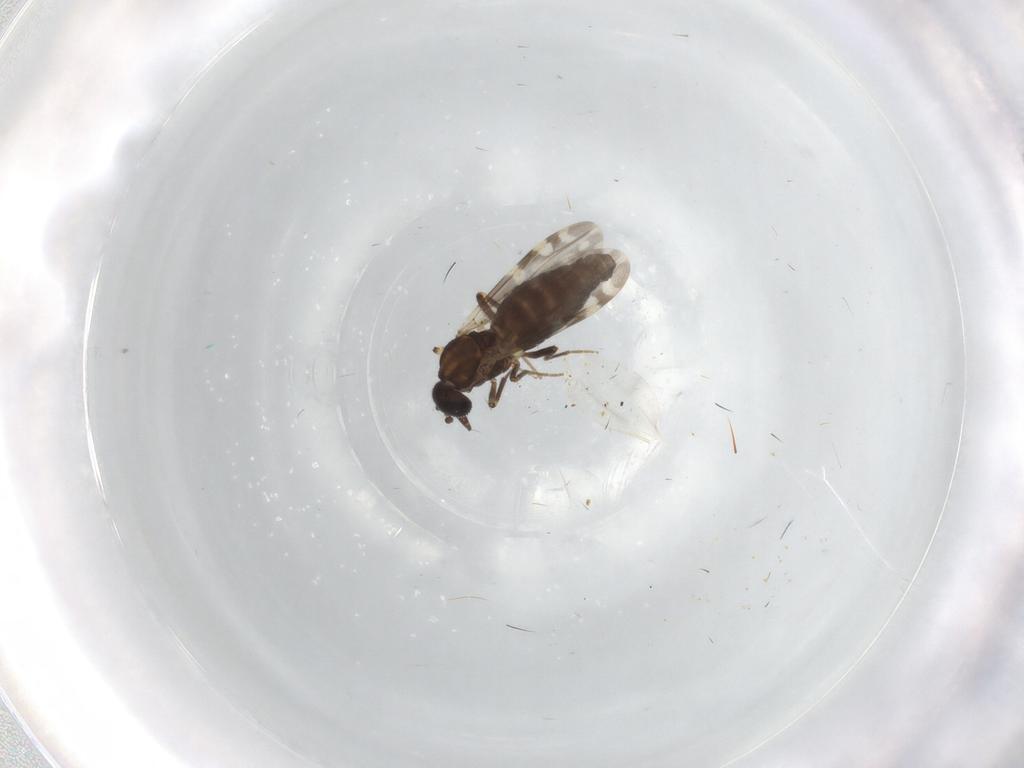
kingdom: Animalia
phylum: Arthropoda
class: Insecta
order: Diptera
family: Ceratopogonidae
